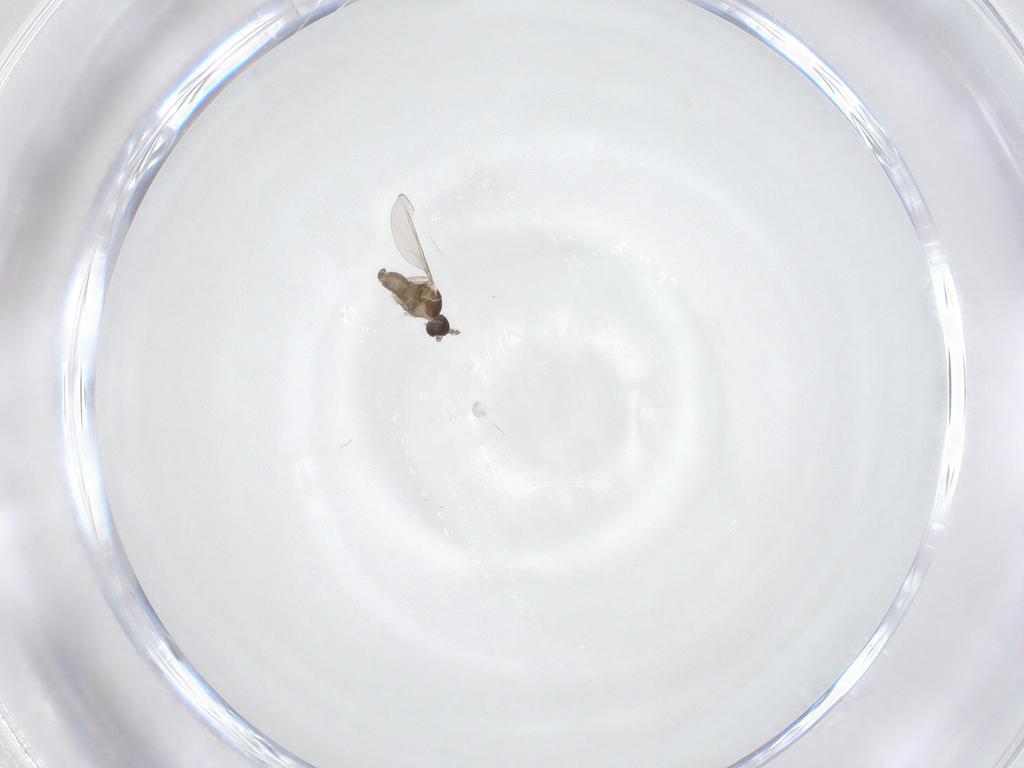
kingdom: Animalia
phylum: Arthropoda
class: Insecta
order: Diptera
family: Cecidomyiidae
